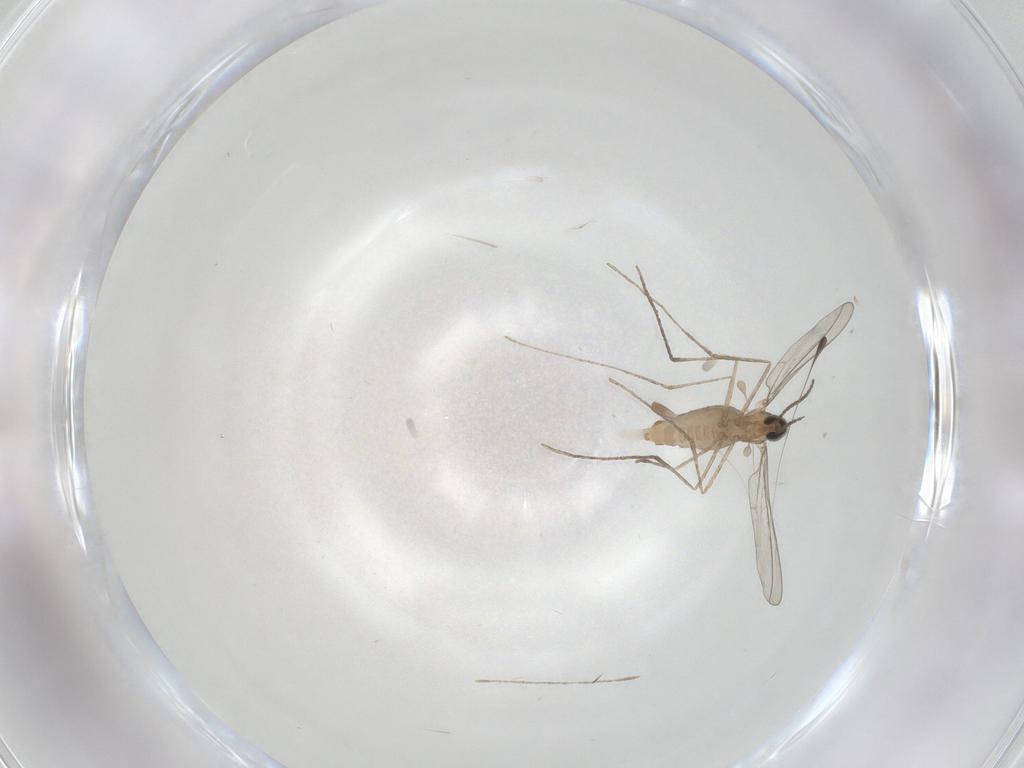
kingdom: Animalia
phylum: Arthropoda
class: Insecta
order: Diptera
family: Cecidomyiidae
